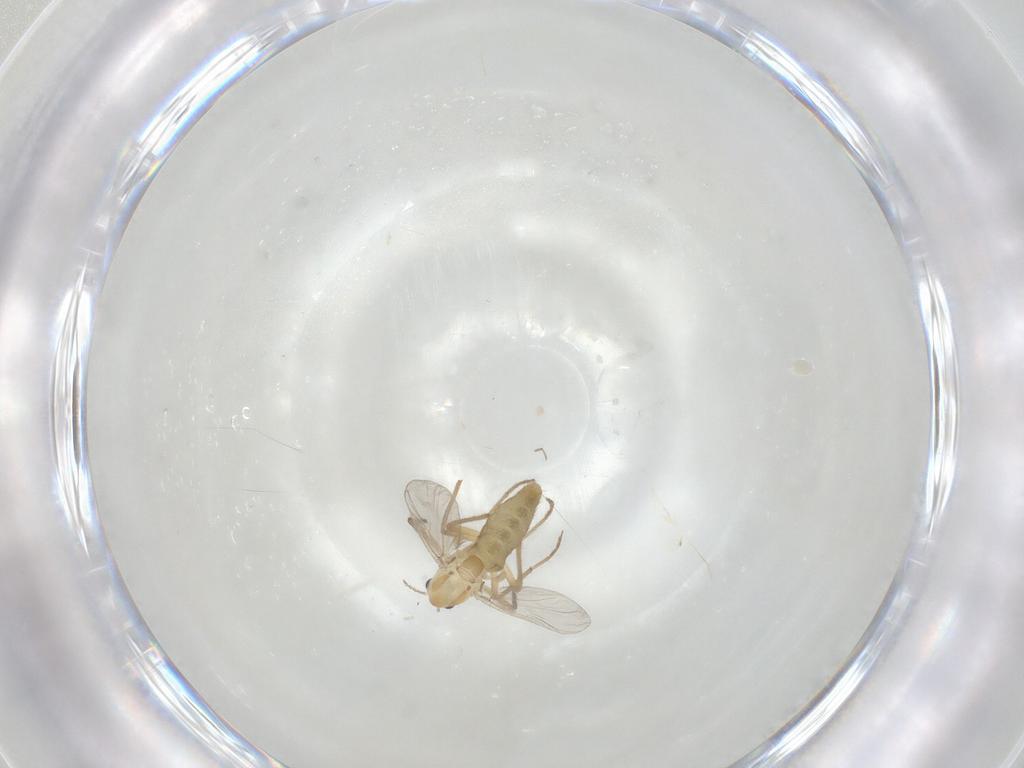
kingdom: Animalia
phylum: Arthropoda
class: Insecta
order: Diptera
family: Chironomidae
